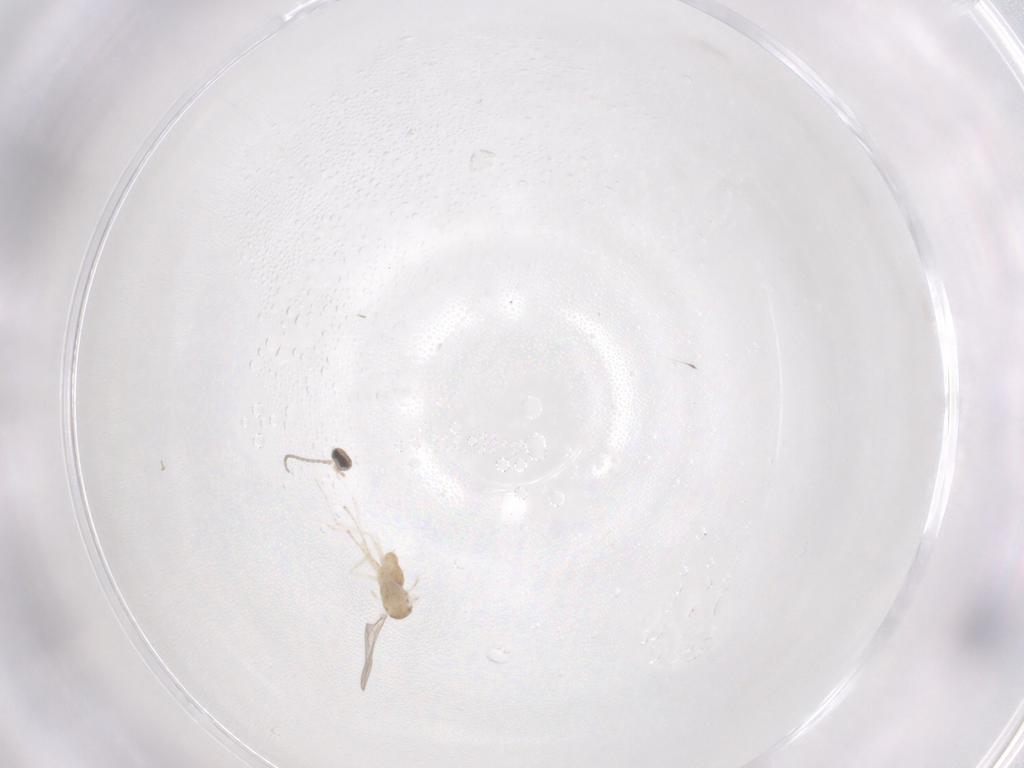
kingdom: Animalia
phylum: Arthropoda
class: Insecta
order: Diptera
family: Cecidomyiidae
